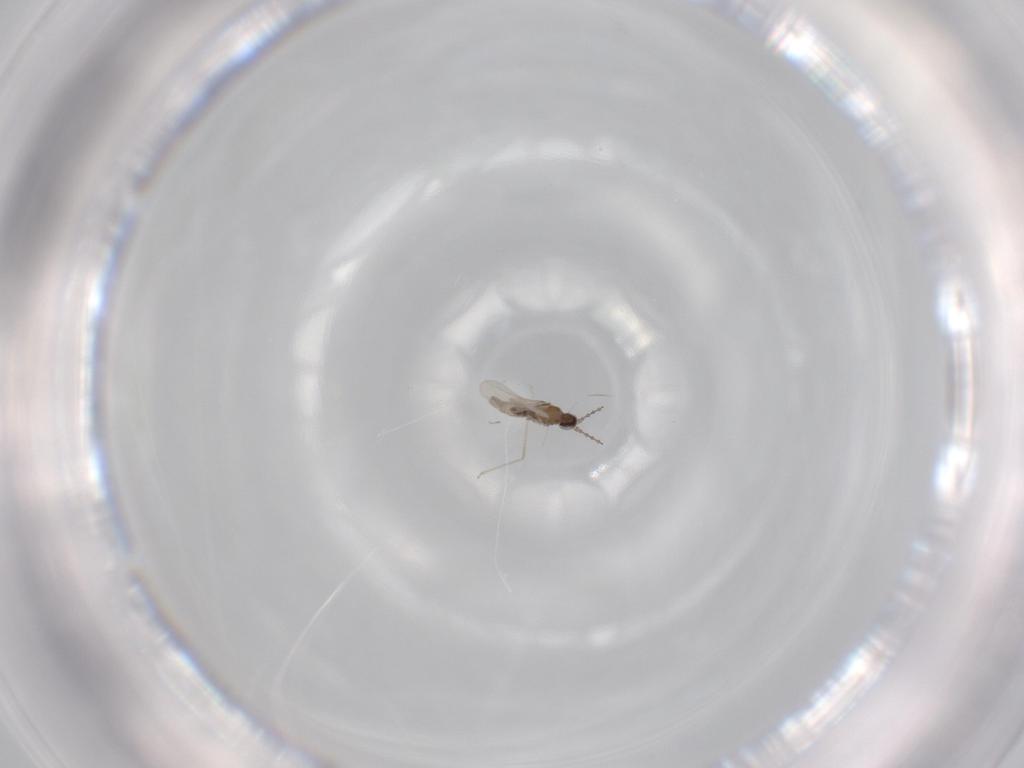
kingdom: Animalia
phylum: Arthropoda
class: Insecta
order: Diptera
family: Cecidomyiidae
